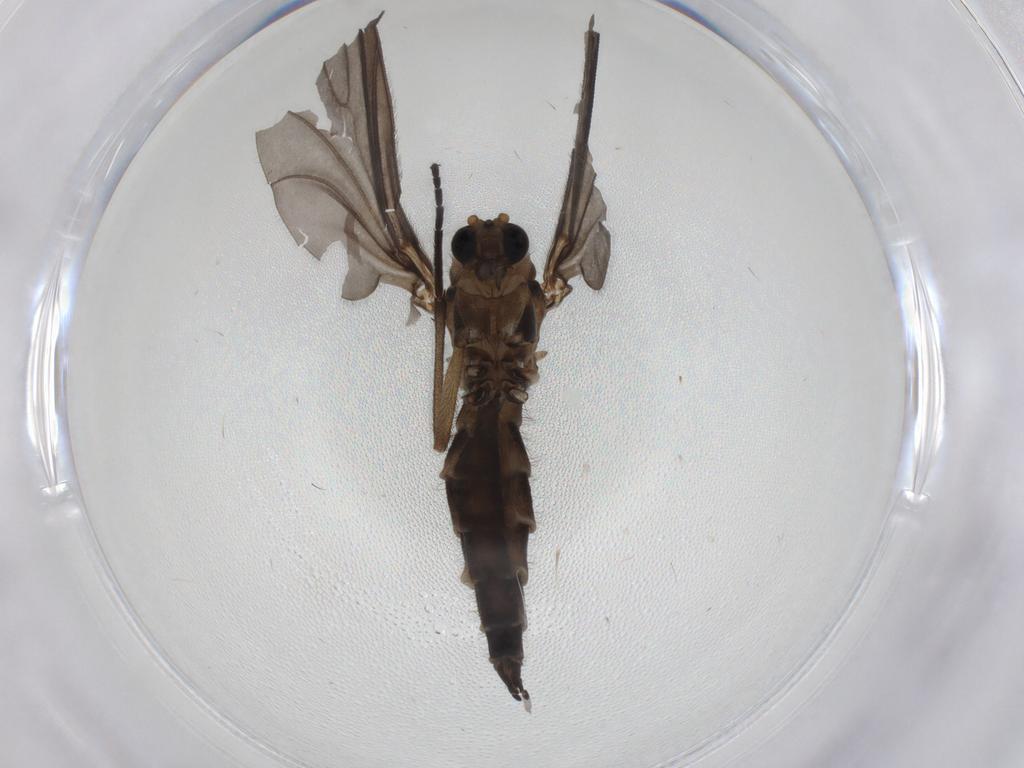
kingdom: Animalia
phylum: Arthropoda
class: Insecta
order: Diptera
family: Sciaridae
